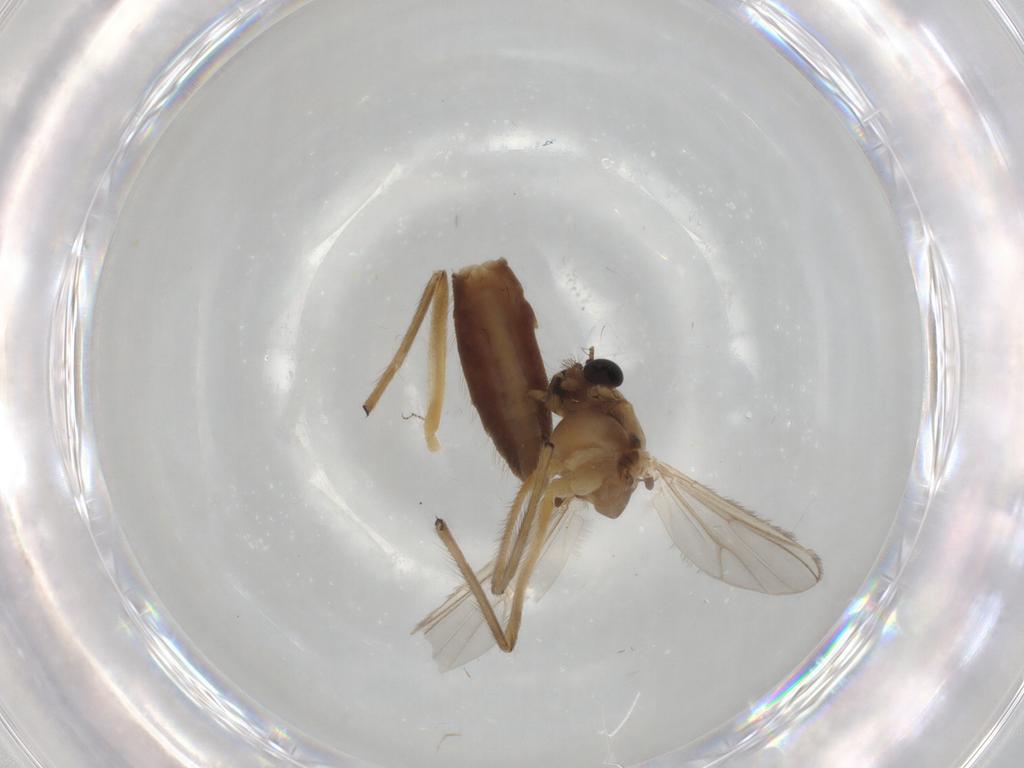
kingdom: Animalia
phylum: Arthropoda
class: Insecta
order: Diptera
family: Chironomidae
